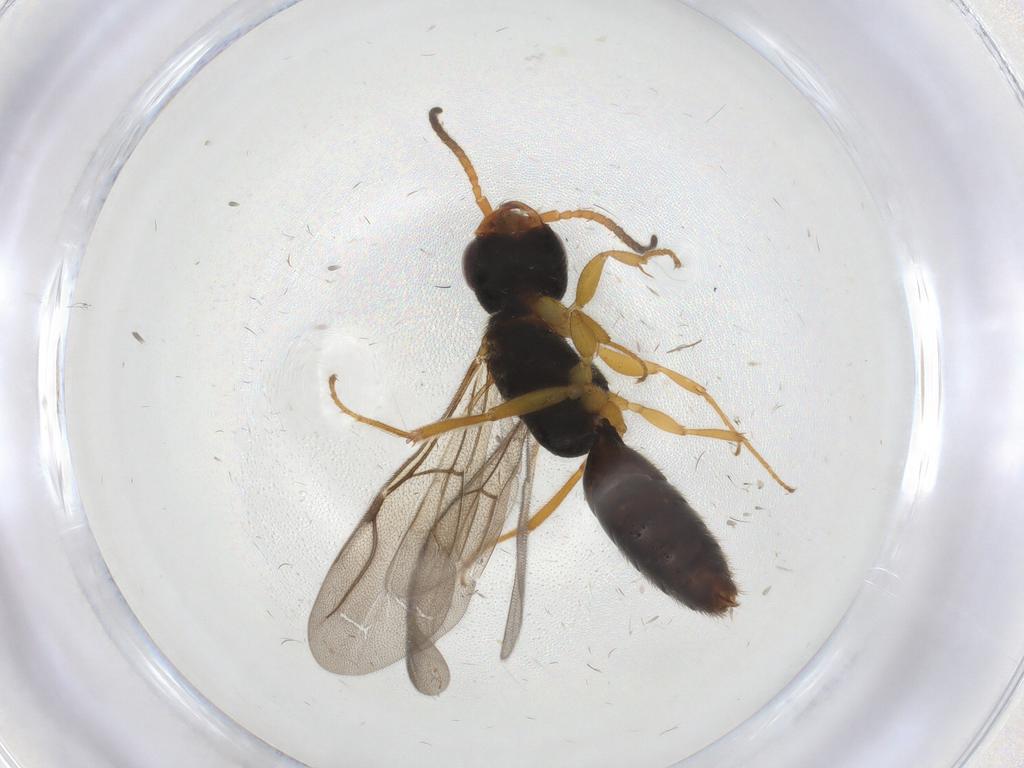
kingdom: Animalia
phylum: Arthropoda
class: Insecta
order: Hymenoptera
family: Bethylidae
